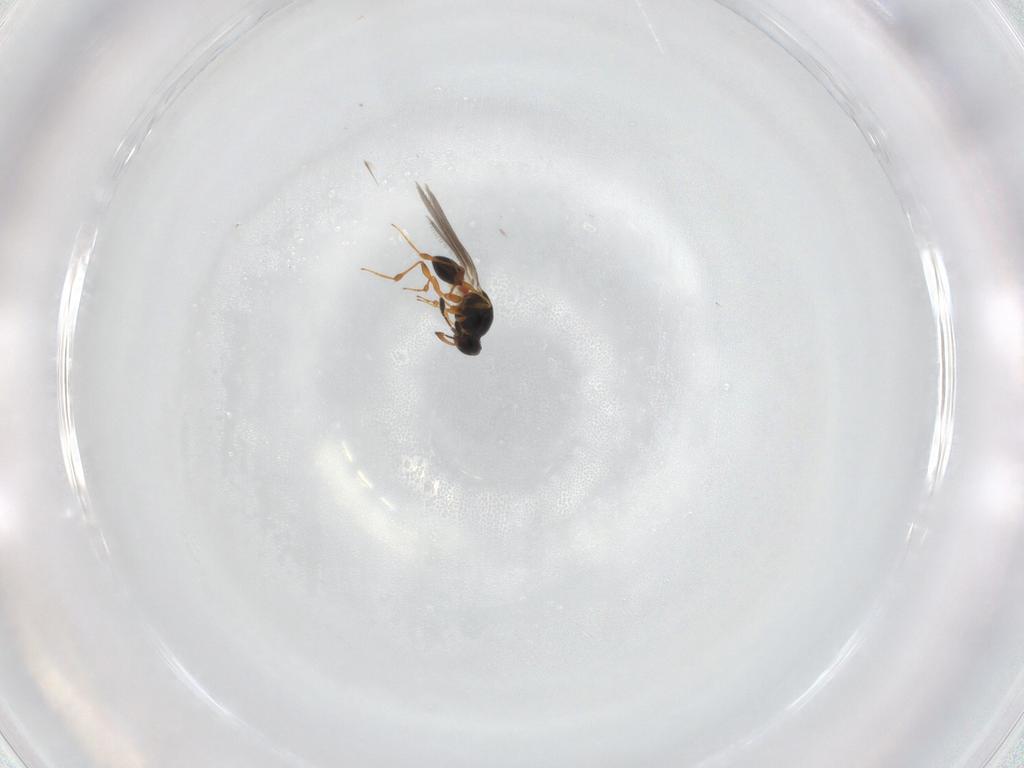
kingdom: Animalia
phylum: Arthropoda
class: Insecta
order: Hymenoptera
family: Platygastridae
